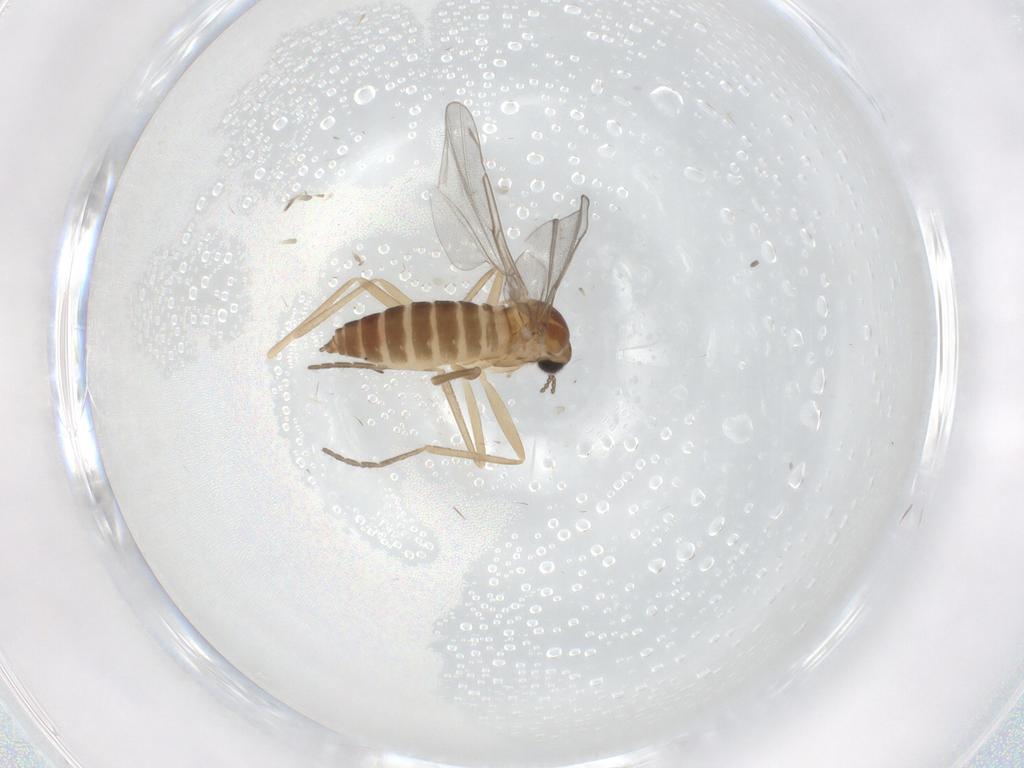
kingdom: Animalia
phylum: Arthropoda
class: Insecta
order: Diptera
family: Cecidomyiidae
